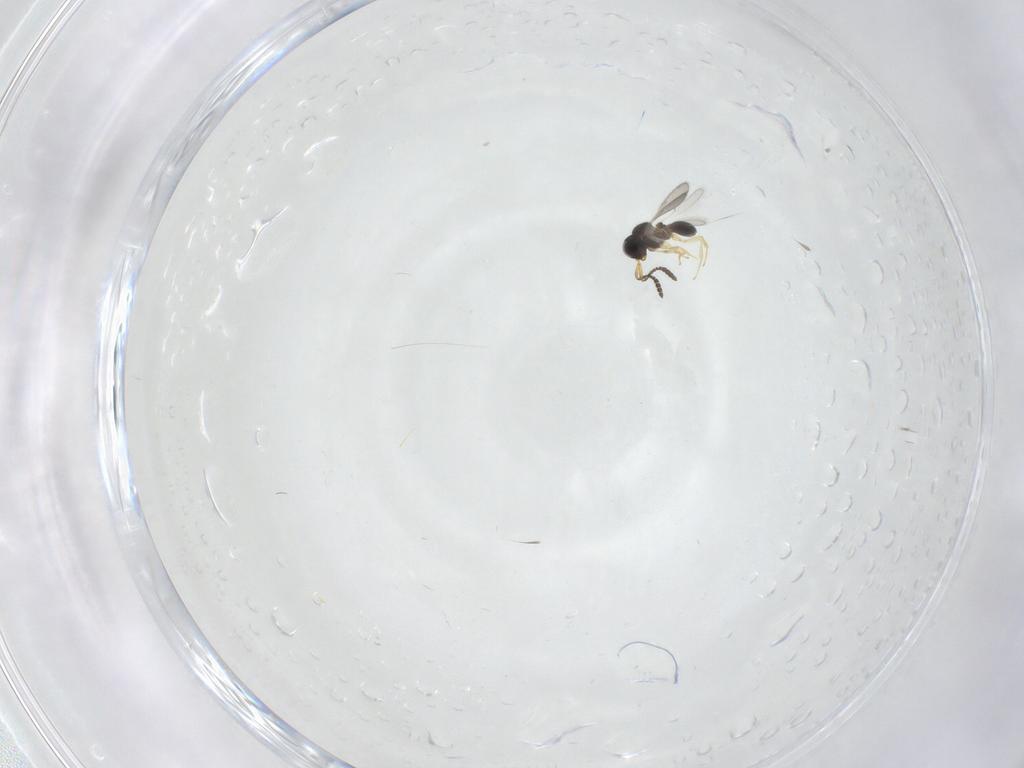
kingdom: Animalia
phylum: Arthropoda
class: Insecta
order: Hymenoptera
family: Scelionidae
